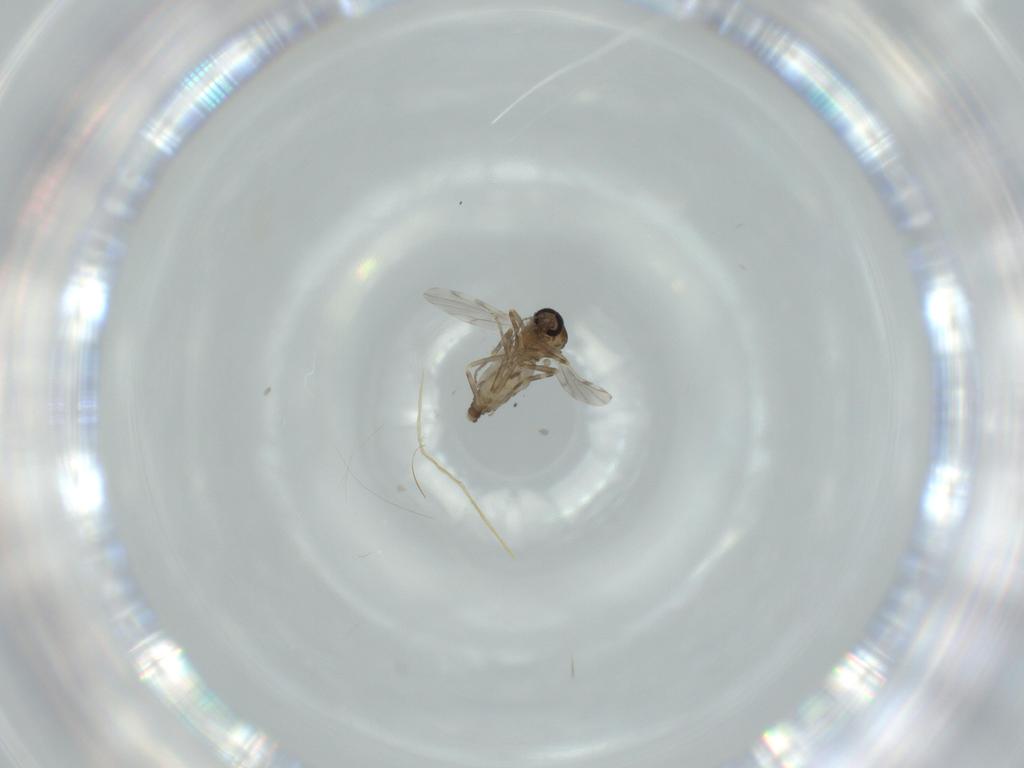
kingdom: Animalia
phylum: Arthropoda
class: Insecta
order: Diptera
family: Ceratopogonidae
